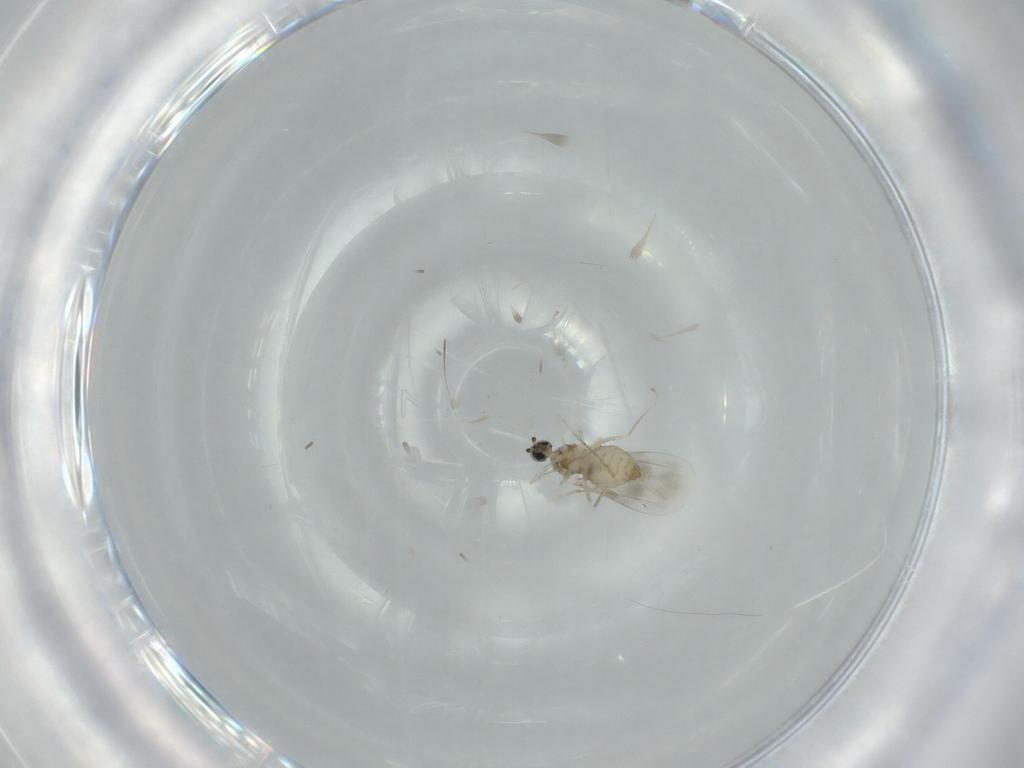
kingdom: Animalia
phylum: Arthropoda
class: Insecta
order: Diptera
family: Cecidomyiidae
